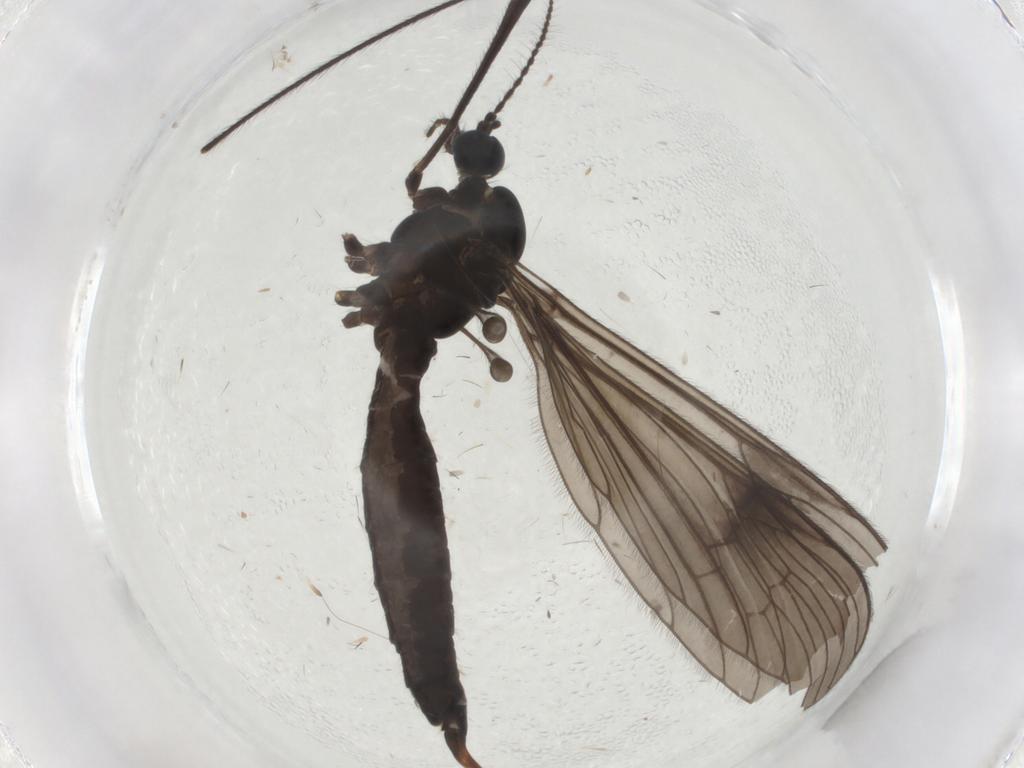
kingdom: Animalia
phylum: Arthropoda
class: Insecta
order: Diptera
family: Limoniidae
